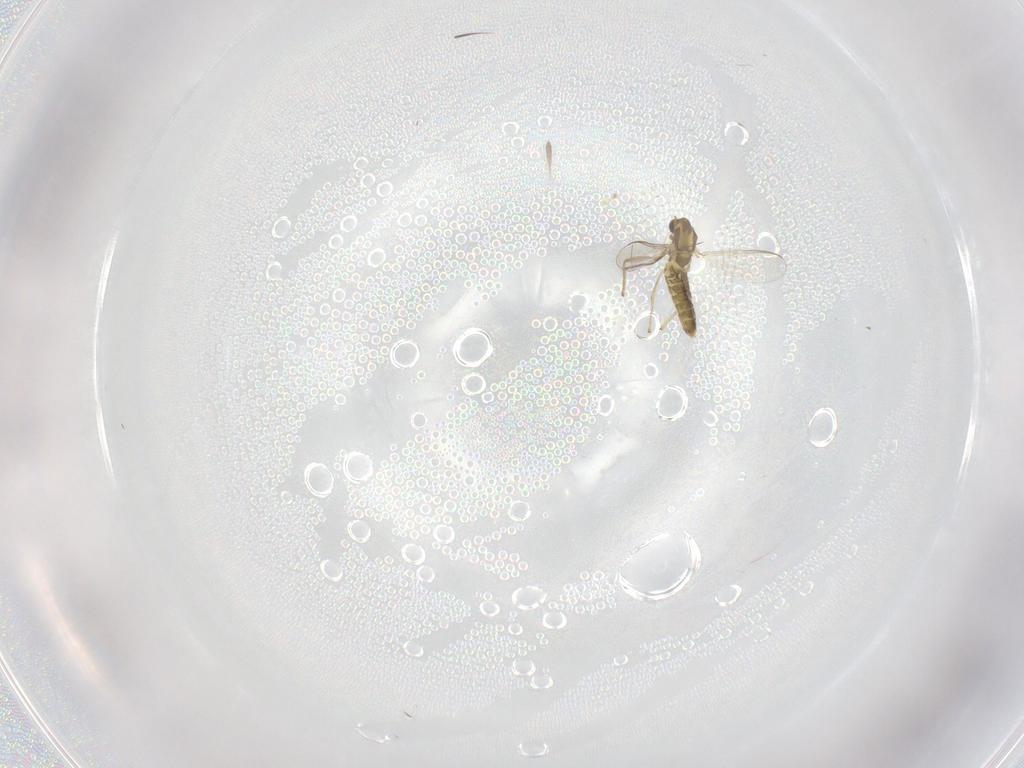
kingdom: Animalia
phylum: Arthropoda
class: Insecta
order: Diptera
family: Chironomidae
